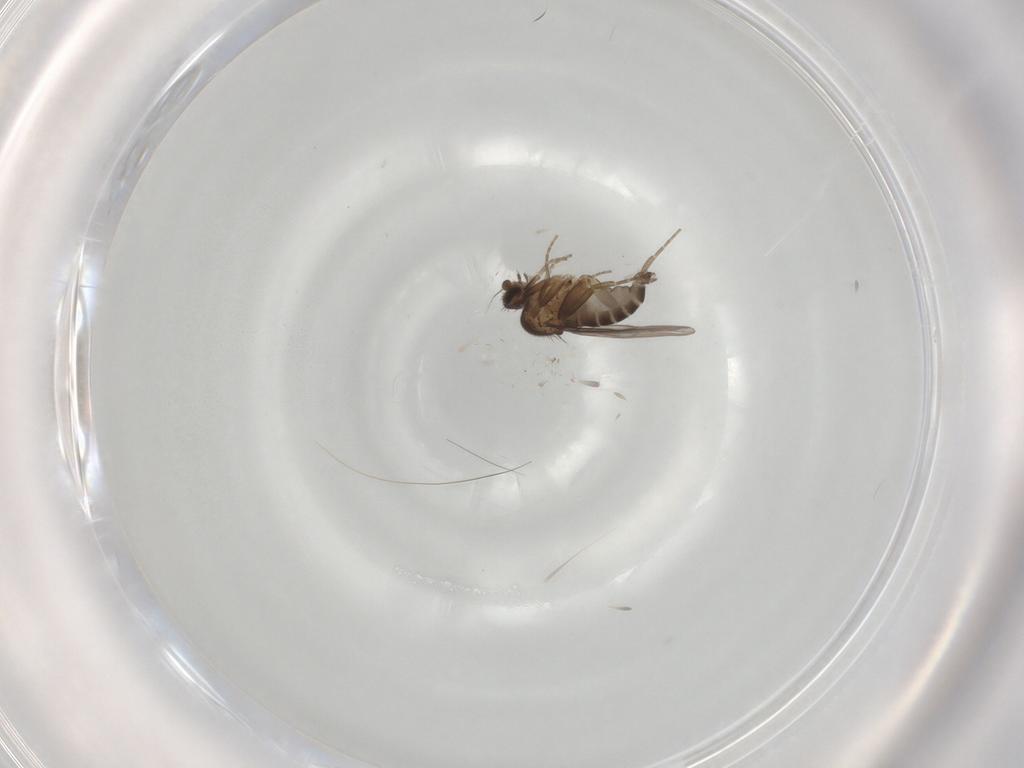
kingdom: Animalia
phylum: Arthropoda
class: Insecta
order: Diptera
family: Phoridae
